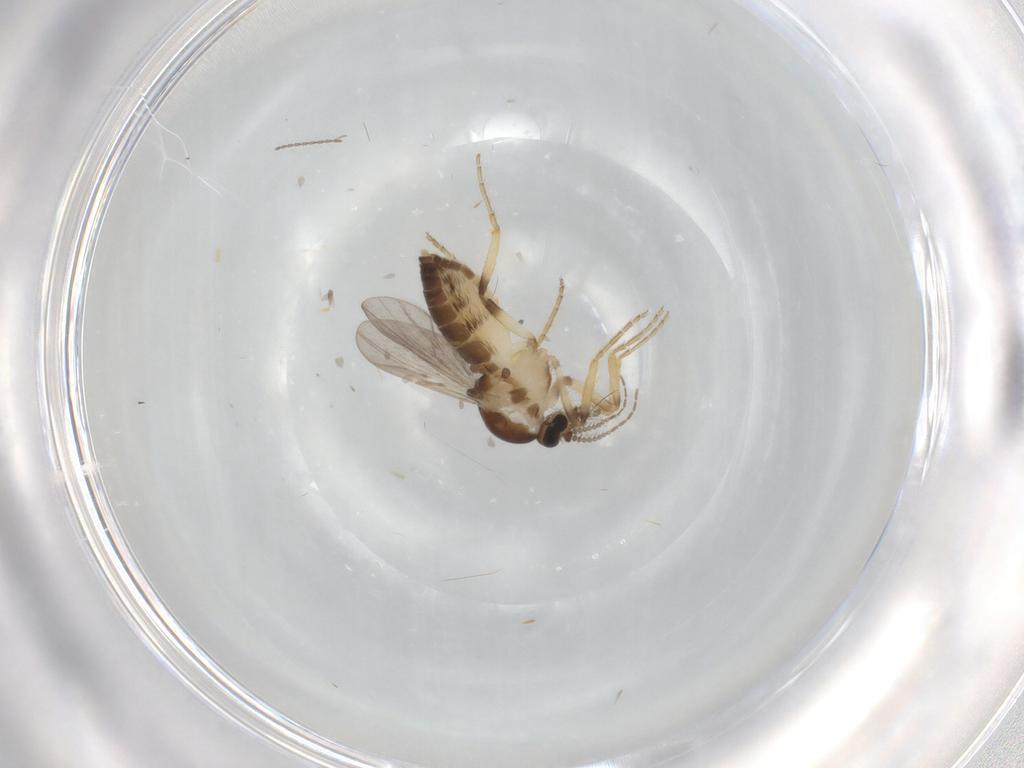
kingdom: Animalia
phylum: Arthropoda
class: Insecta
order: Diptera
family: Ceratopogonidae
